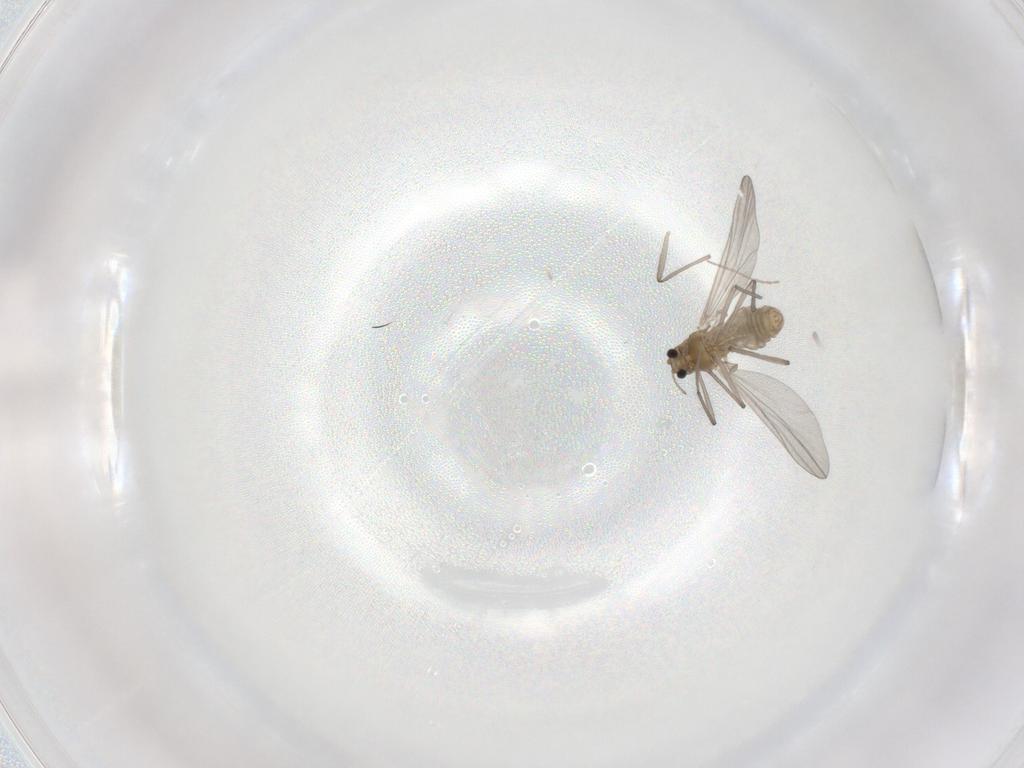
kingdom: Animalia
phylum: Arthropoda
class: Insecta
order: Diptera
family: Chironomidae
